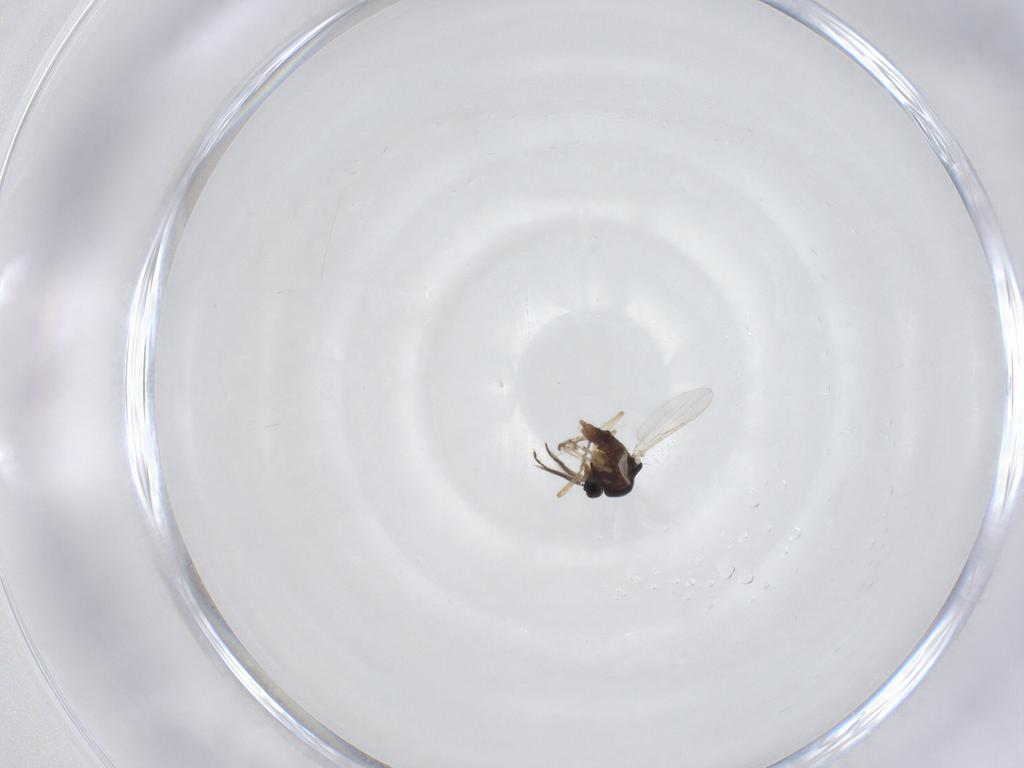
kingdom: Animalia
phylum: Arthropoda
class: Insecta
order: Diptera
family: Ceratopogonidae
